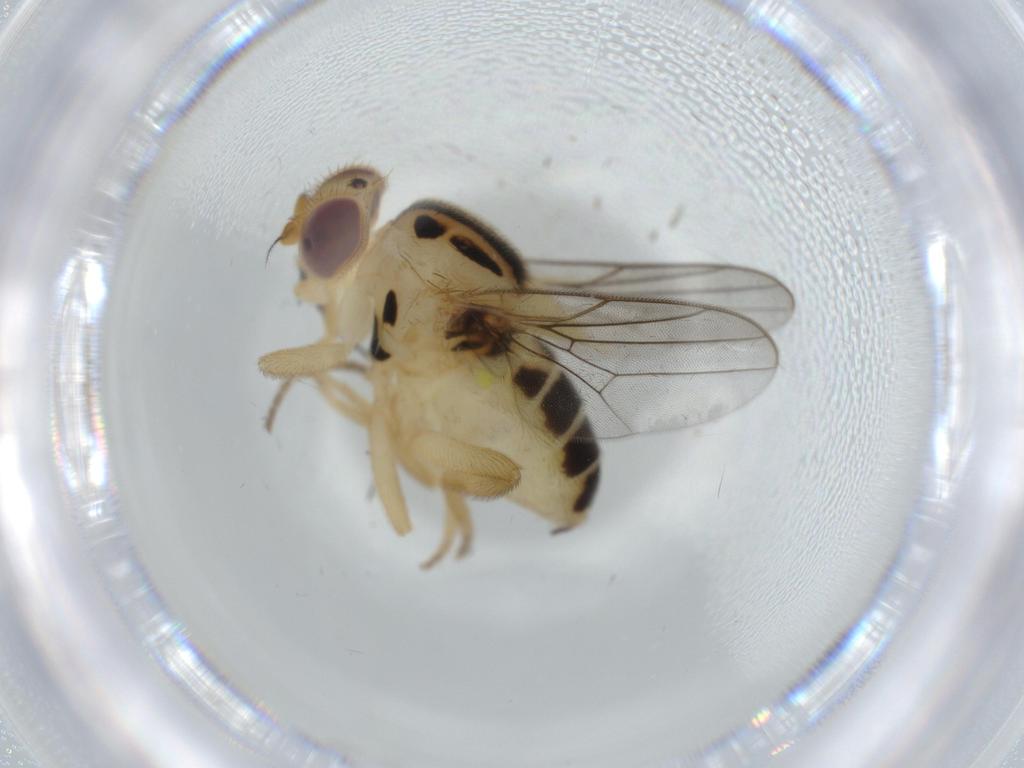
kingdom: Animalia
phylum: Arthropoda
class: Insecta
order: Diptera
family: Chloropidae
